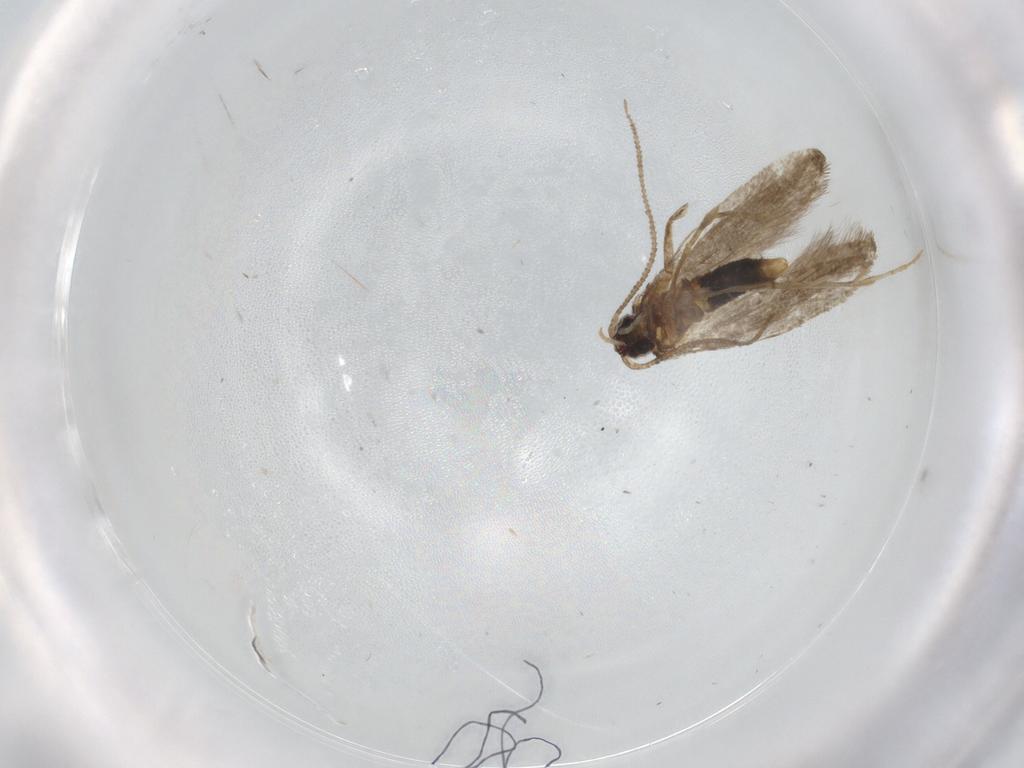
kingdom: Animalia
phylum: Arthropoda
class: Insecta
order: Lepidoptera
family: Tineidae
